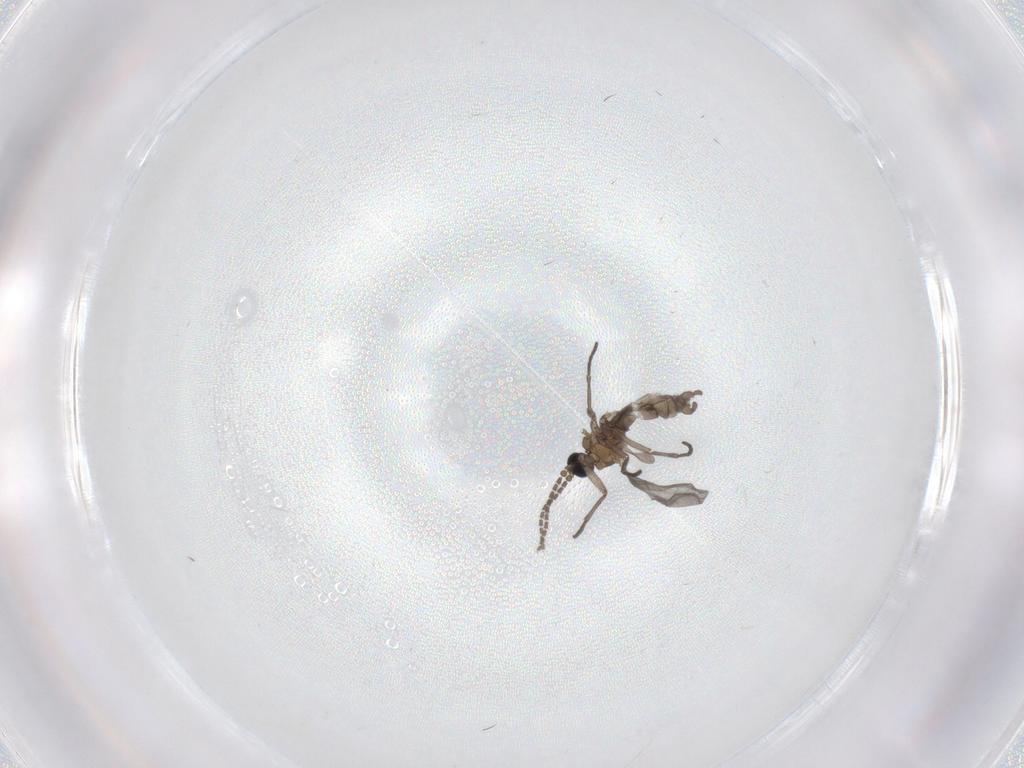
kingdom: Animalia
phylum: Arthropoda
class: Insecta
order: Diptera
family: Sciaridae
